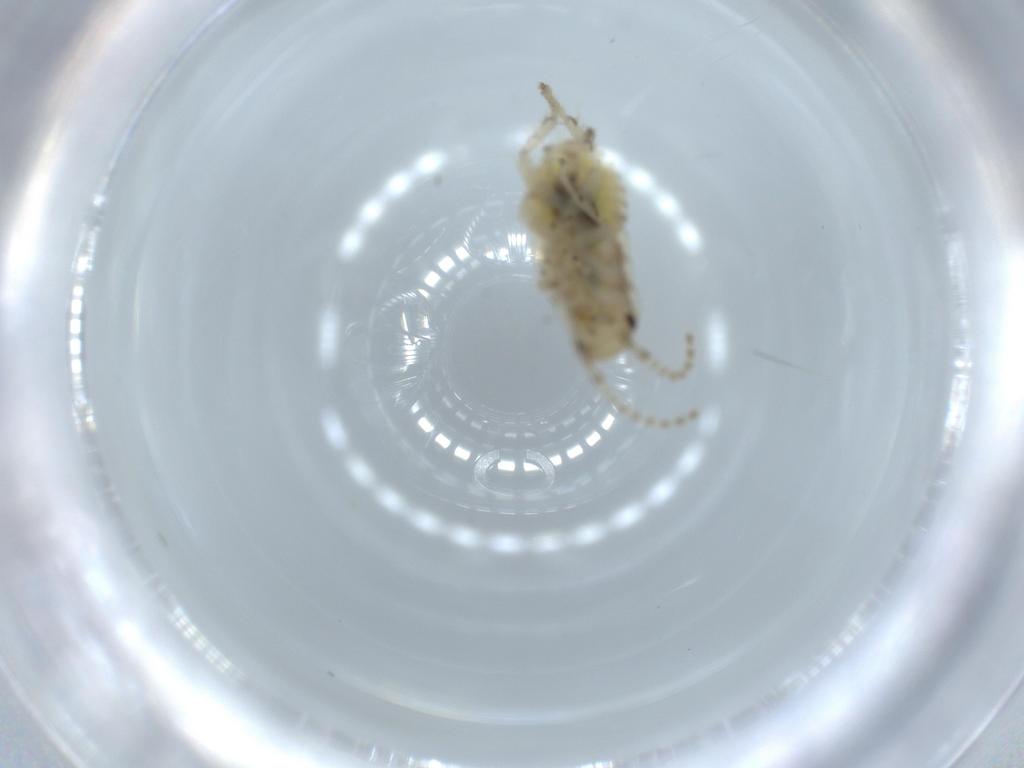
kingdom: Animalia
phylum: Arthropoda
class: Insecta
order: Blattodea
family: Ectobiidae
